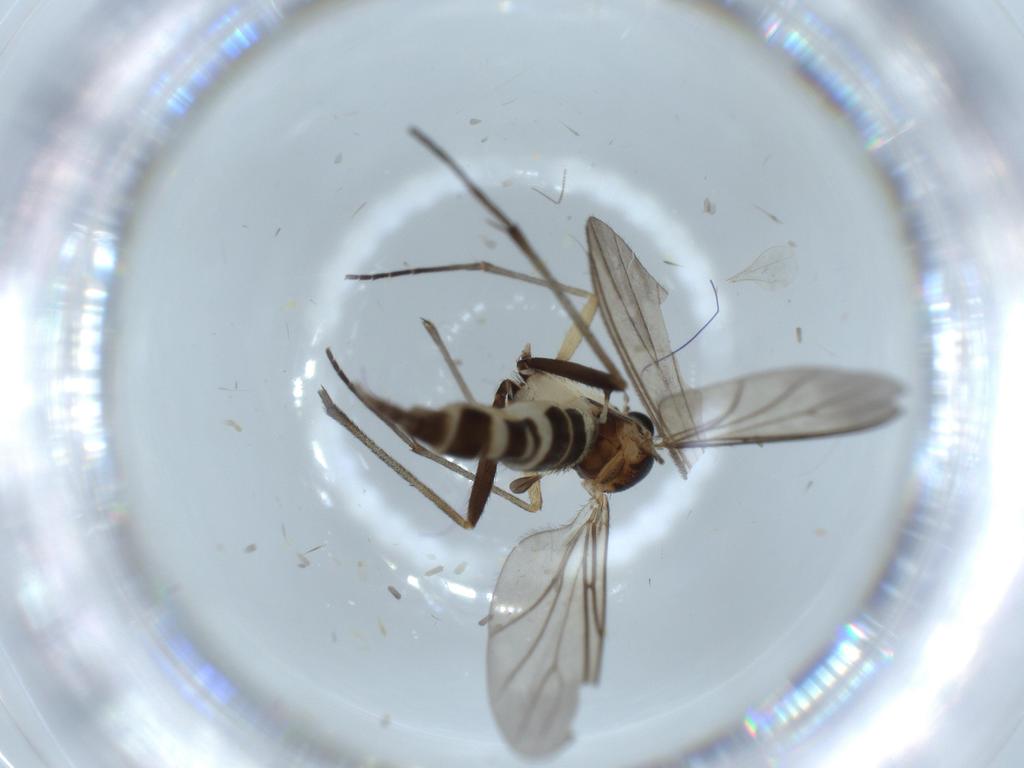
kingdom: Animalia
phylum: Arthropoda
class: Insecta
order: Diptera
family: Sciaridae
